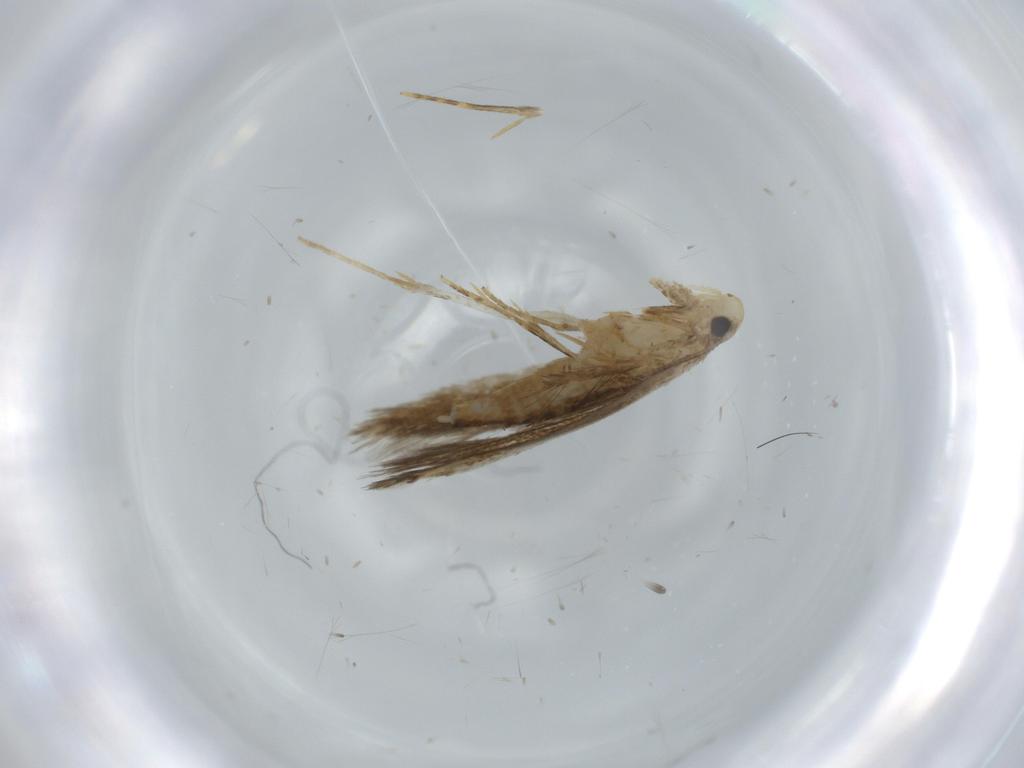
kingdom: Animalia
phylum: Arthropoda
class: Insecta
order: Lepidoptera
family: Tineidae
